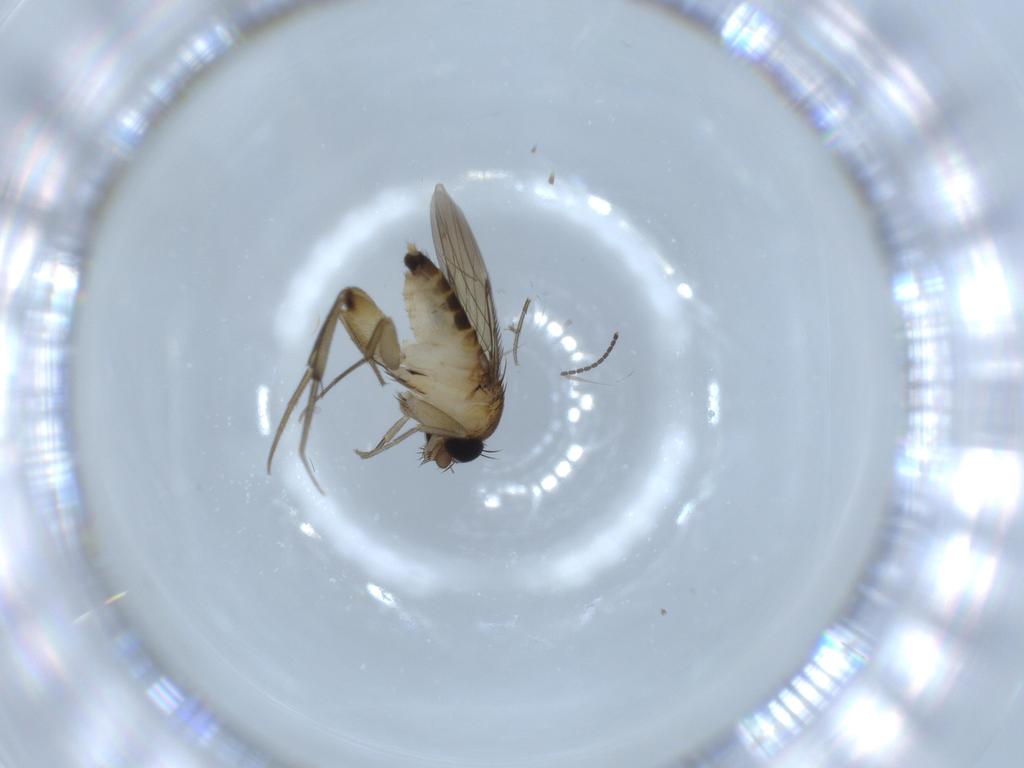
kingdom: Animalia
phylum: Arthropoda
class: Insecta
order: Diptera
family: Phoridae
